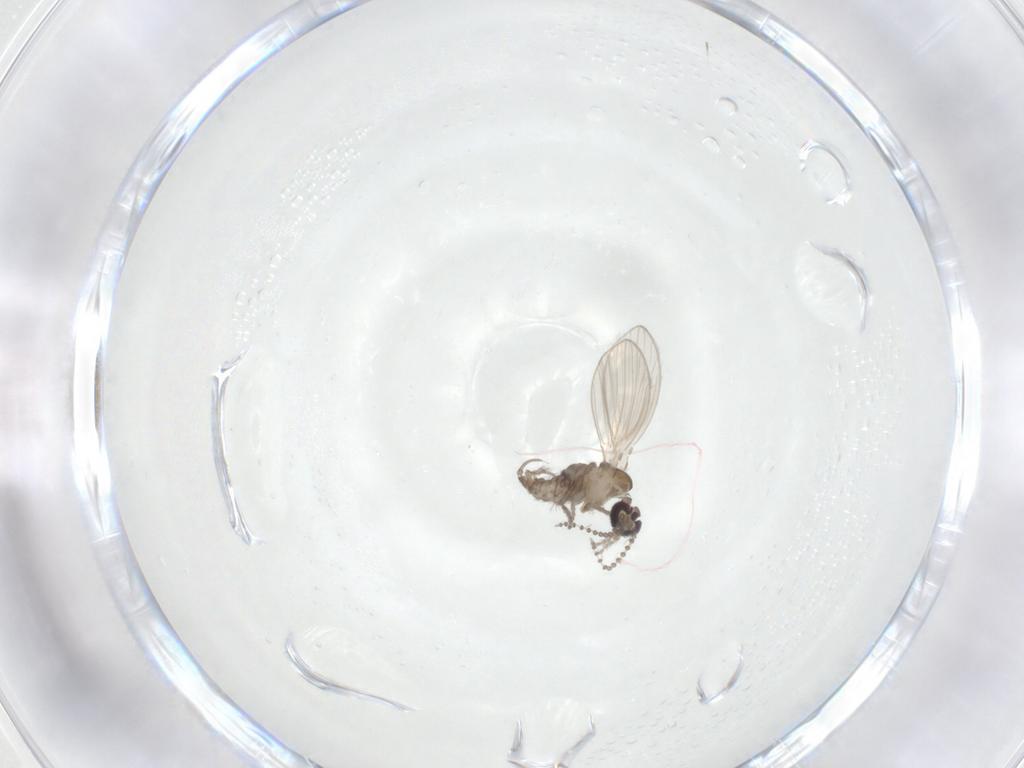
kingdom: Animalia
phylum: Arthropoda
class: Insecta
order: Diptera
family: Psychodidae
